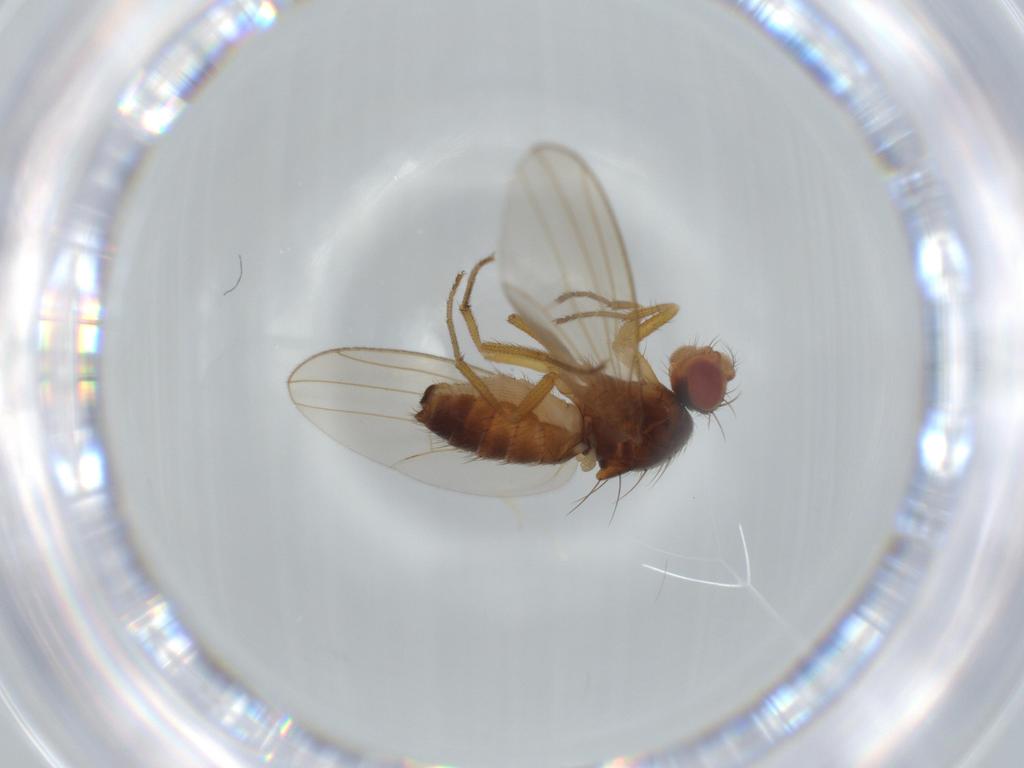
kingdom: Animalia
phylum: Arthropoda
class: Insecta
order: Diptera
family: Drosophilidae
